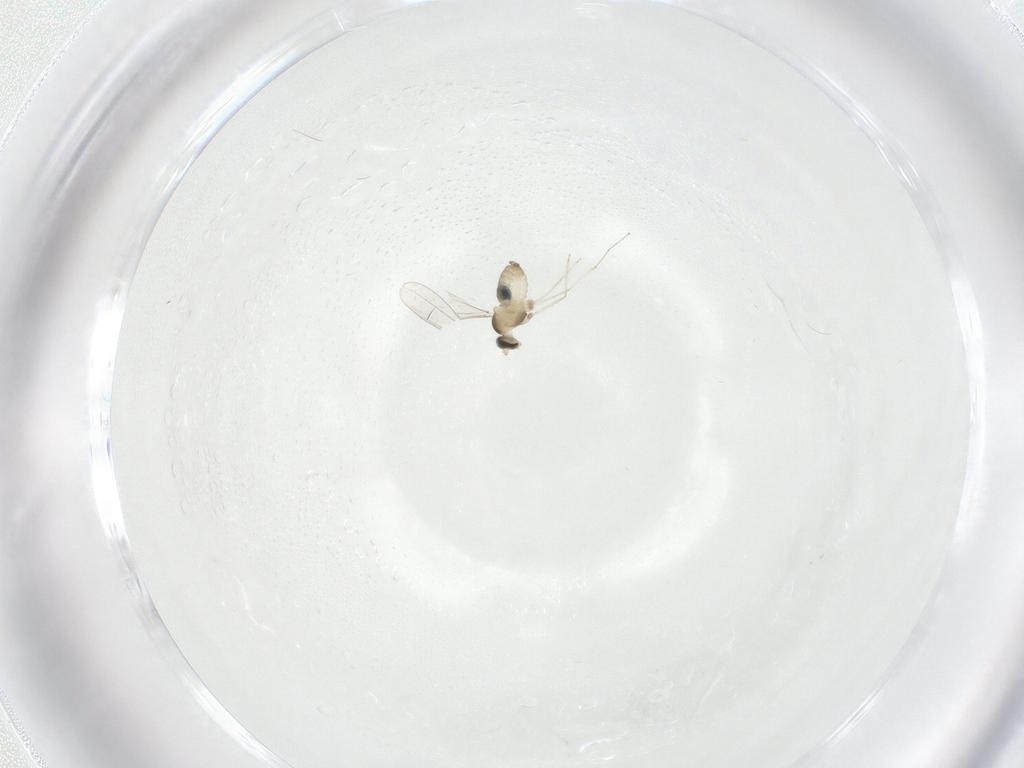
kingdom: Animalia
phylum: Arthropoda
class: Insecta
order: Diptera
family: Cecidomyiidae
